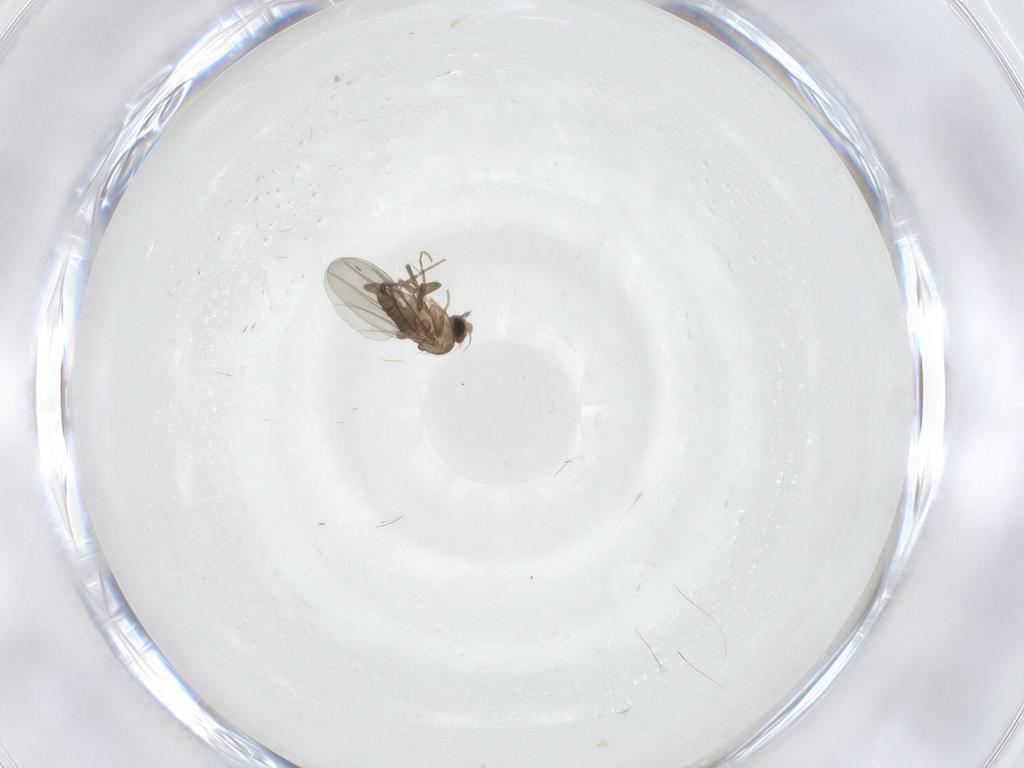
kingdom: Animalia
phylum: Arthropoda
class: Insecta
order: Diptera
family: Cecidomyiidae
